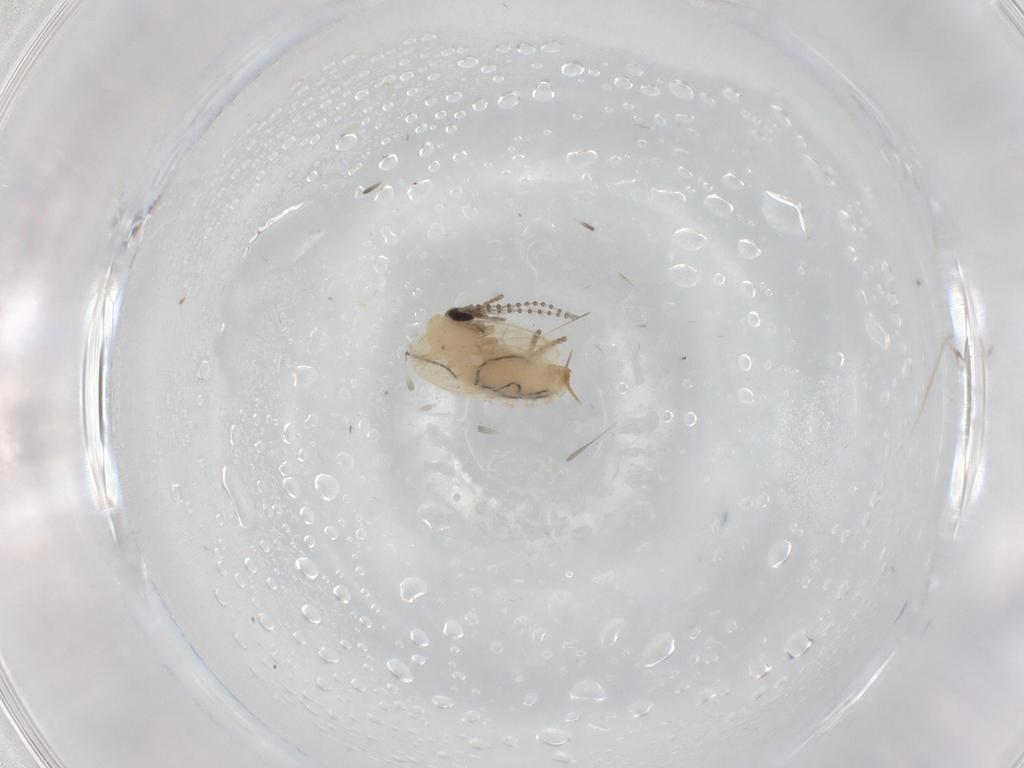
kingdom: Animalia
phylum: Arthropoda
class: Insecta
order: Diptera
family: Psychodidae
